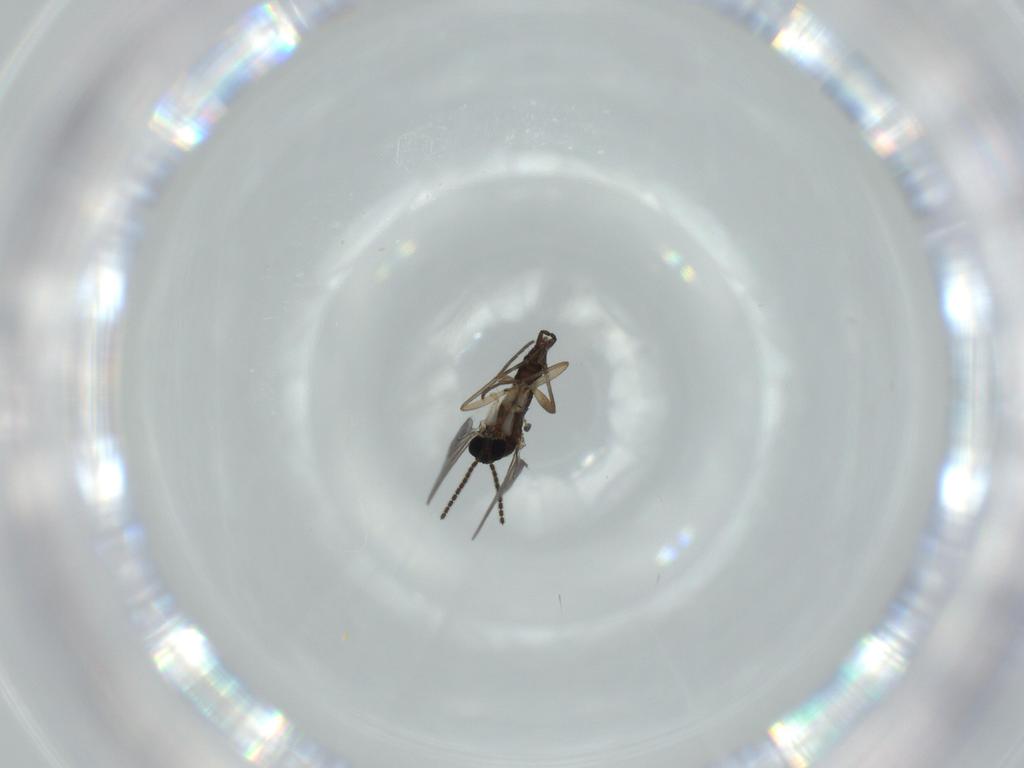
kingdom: Animalia
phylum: Arthropoda
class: Insecta
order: Diptera
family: Sciaridae
